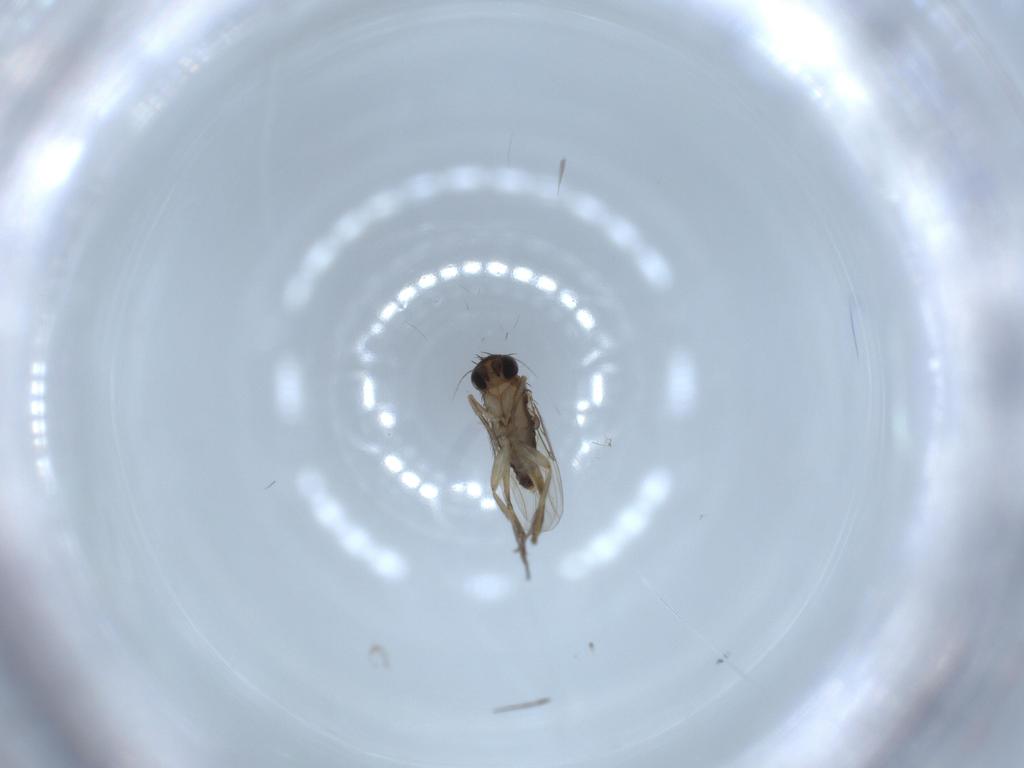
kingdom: Animalia
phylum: Arthropoda
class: Insecta
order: Diptera
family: Phoridae
